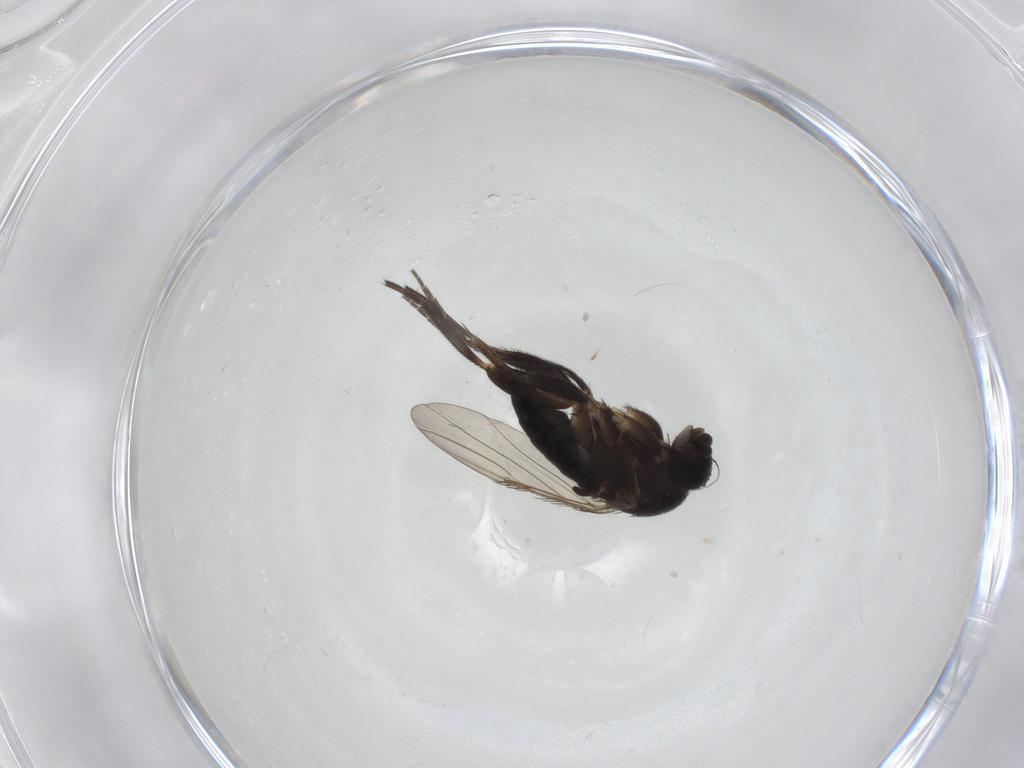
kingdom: Animalia
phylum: Arthropoda
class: Insecta
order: Diptera
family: Phoridae
